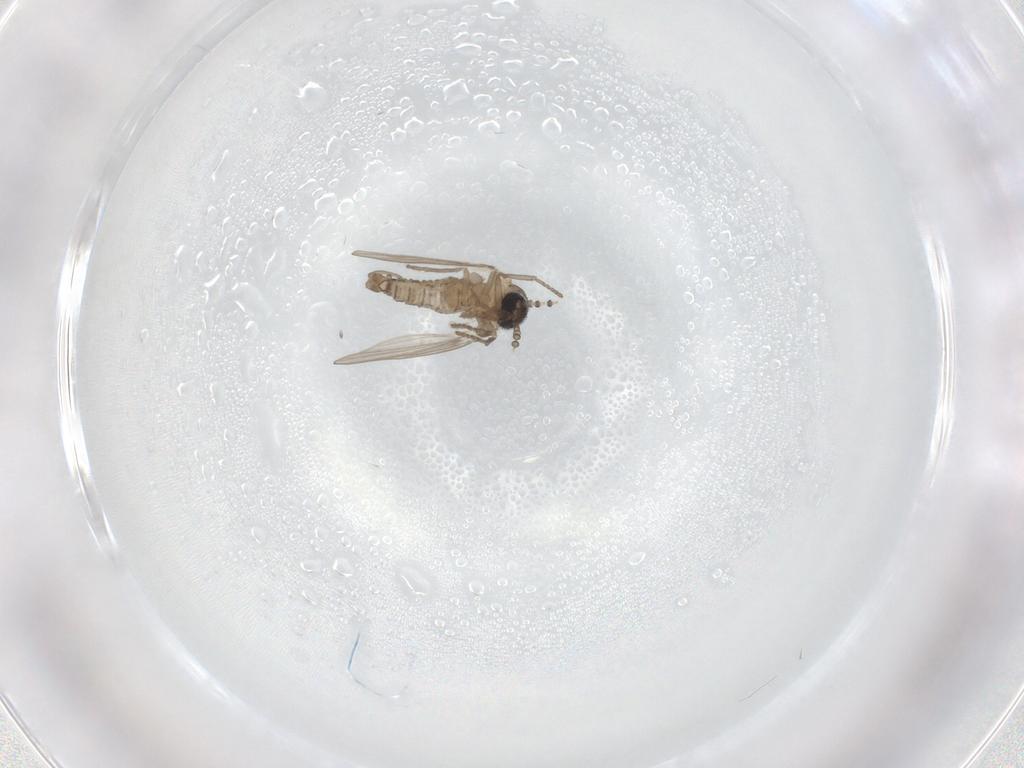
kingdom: Animalia
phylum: Arthropoda
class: Insecta
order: Diptera
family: Psychodidae
